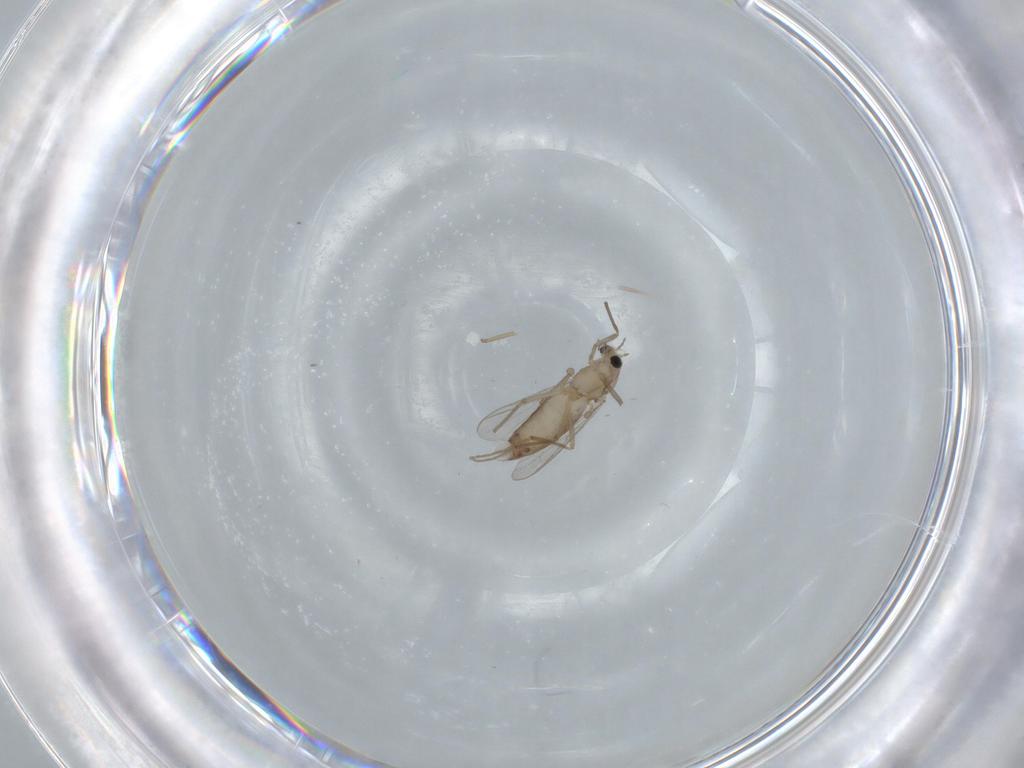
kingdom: Animalia
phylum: Arthropoda
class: Insecta
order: Diptera
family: Chironomidae
